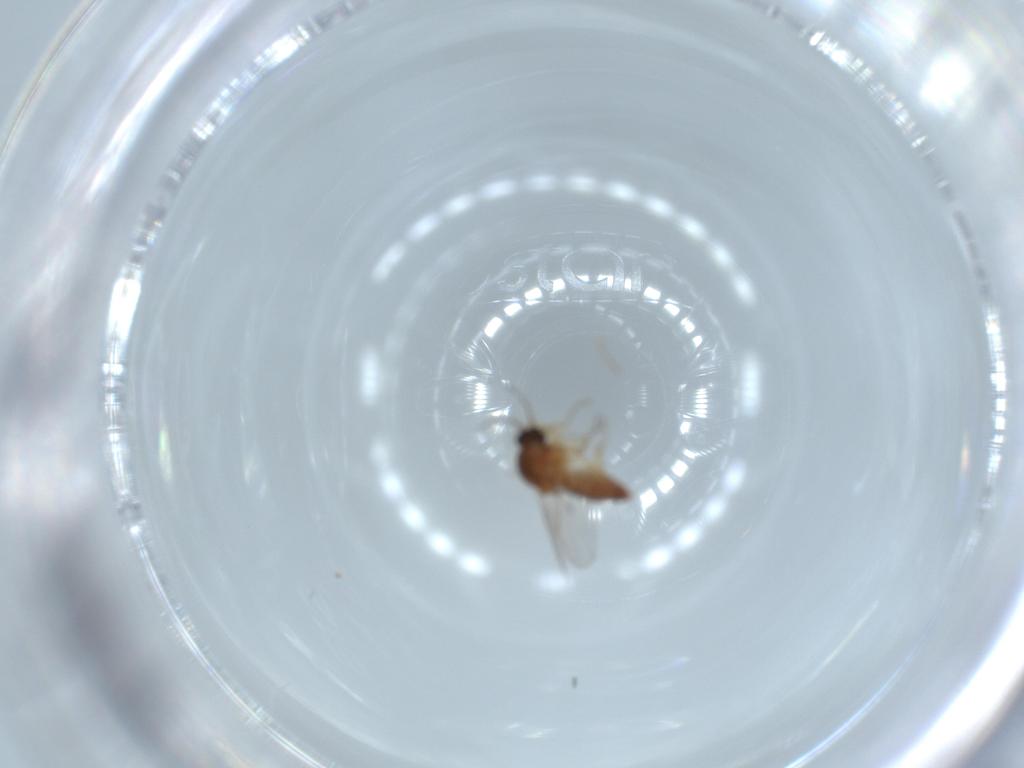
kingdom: Animalia
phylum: Arthropoda
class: Insecta
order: Diptera
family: Ceratopogonidae
